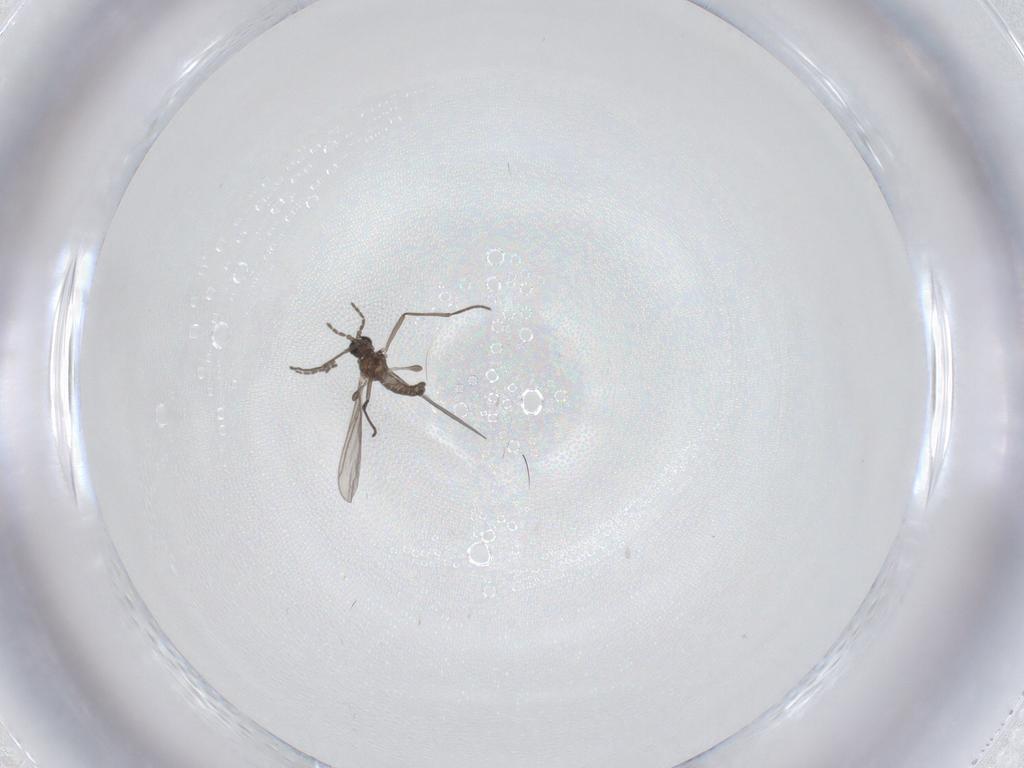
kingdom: Animalia
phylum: Arthropoda
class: Insecta
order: Diptera
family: Sciaridae
